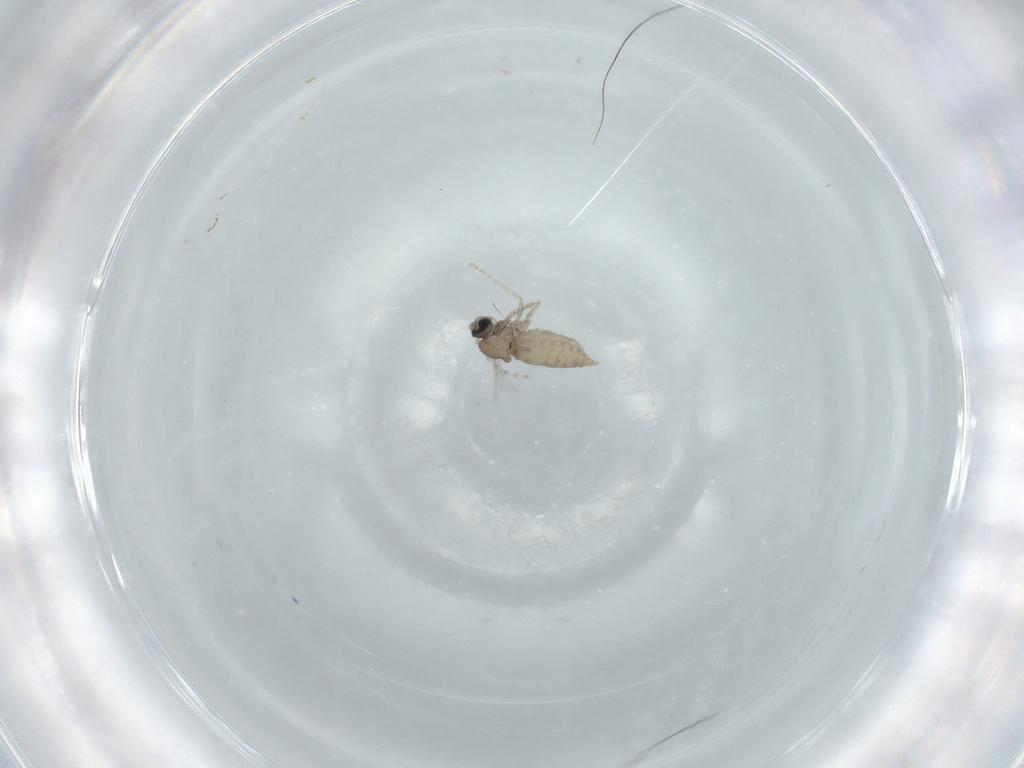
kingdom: Animalia
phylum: Arthropoda
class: Insecta
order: Diptera
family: Cecidomyiidae
